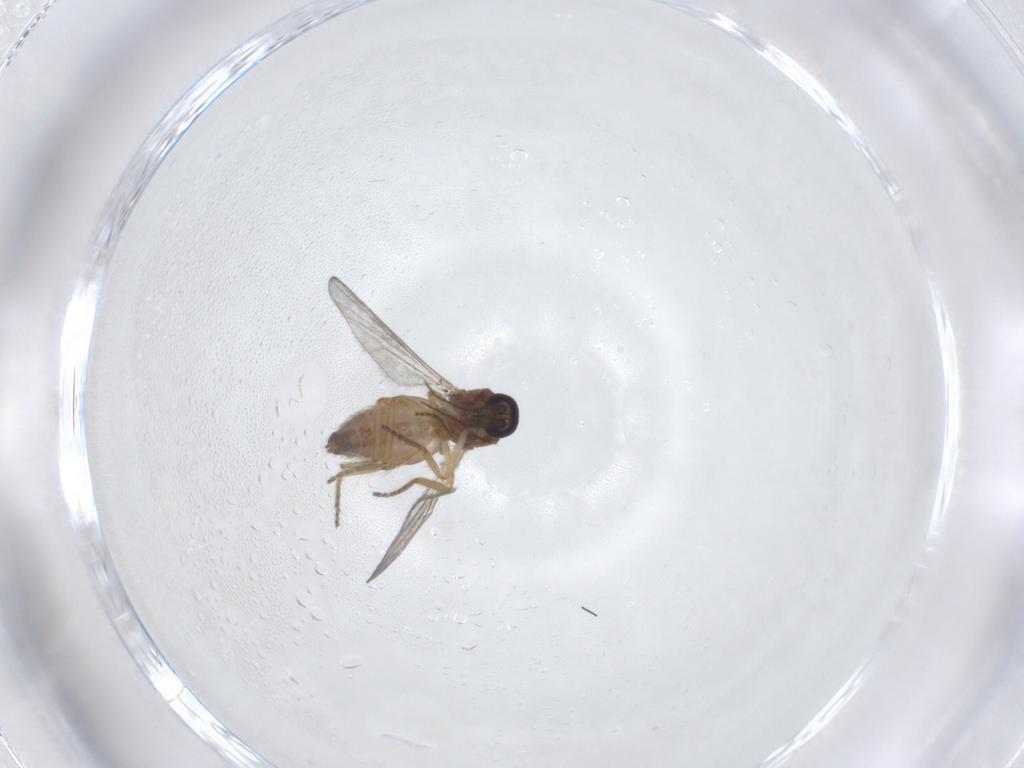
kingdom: Animalia
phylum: Arthropoda
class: Insecta
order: Diptera
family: Ceratopogonidae
